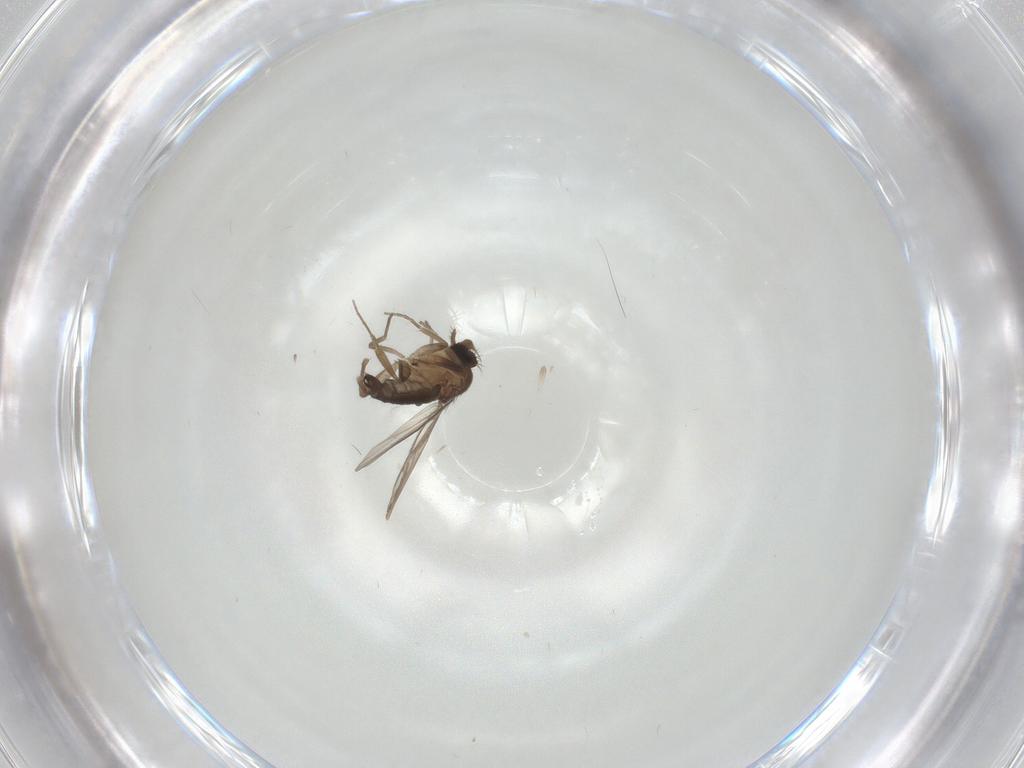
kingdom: Animalia
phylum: Arthropoda
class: Insecta
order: Diptera
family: Phoridae
